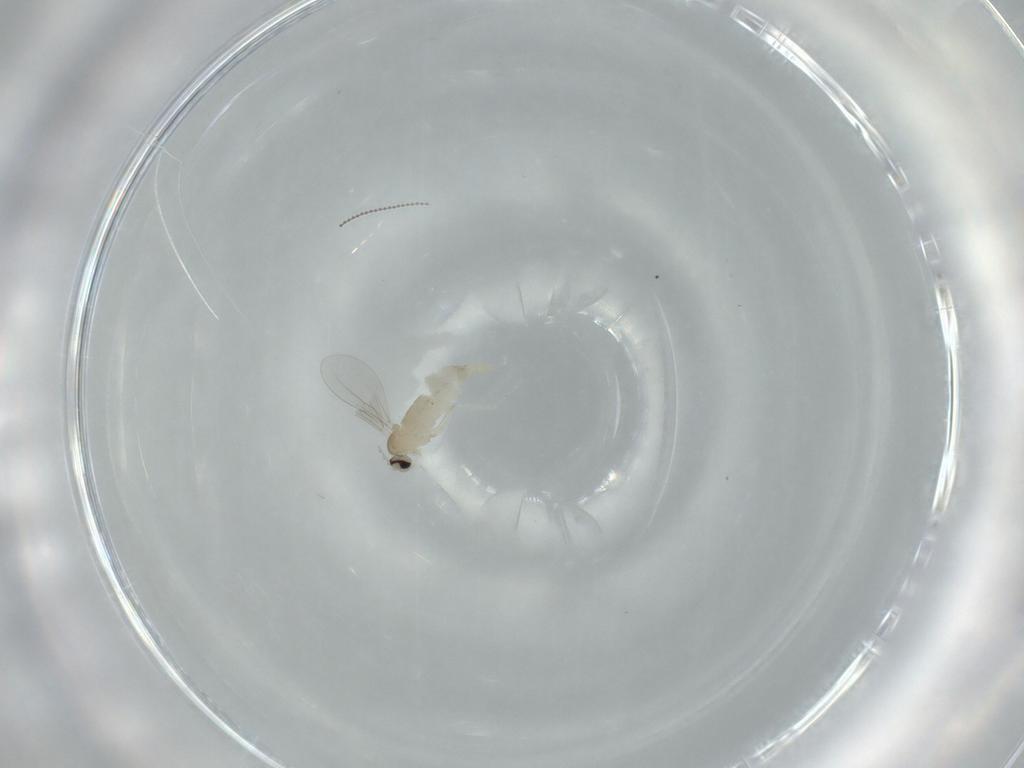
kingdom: Animalia
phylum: Arthropoda
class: Insecta
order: Diptera
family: Cecidomyiidae
